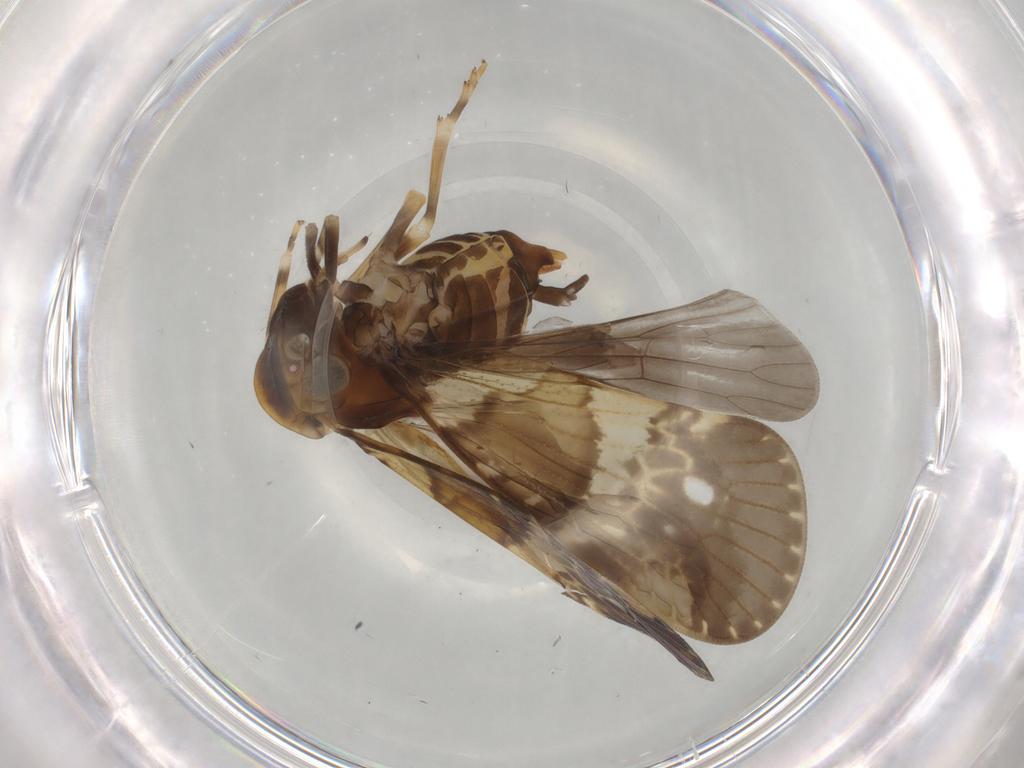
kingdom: Animalia
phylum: Arthropoda
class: Insecta
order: Hemiptera
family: Cixiidae
